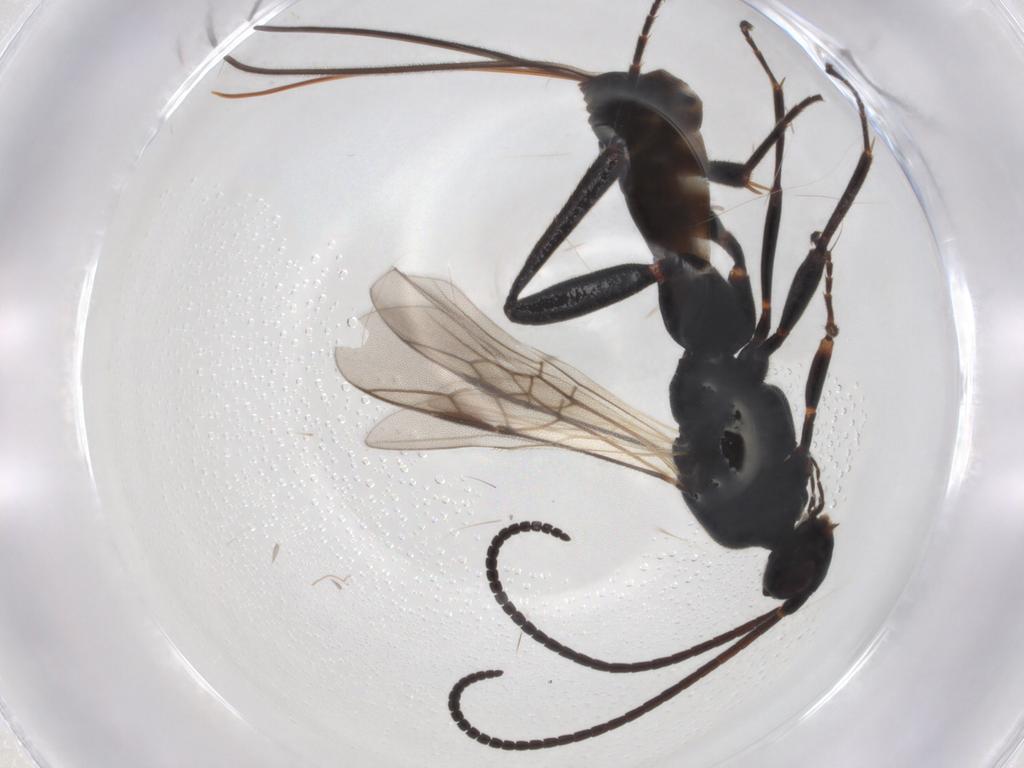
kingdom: Animalia
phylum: Arthropoda
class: Insecta
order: Hymenoptera
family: Braconidae
